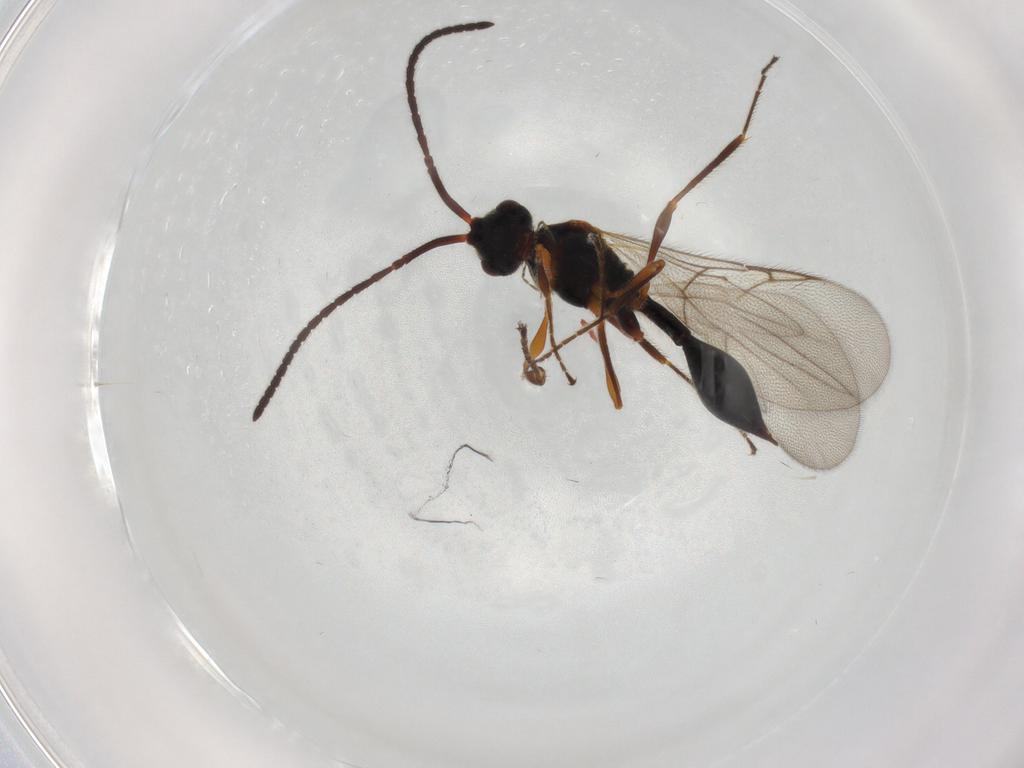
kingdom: Animalia
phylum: Arthropoda
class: Insecta
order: Hymenoptera
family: Diapriidae
